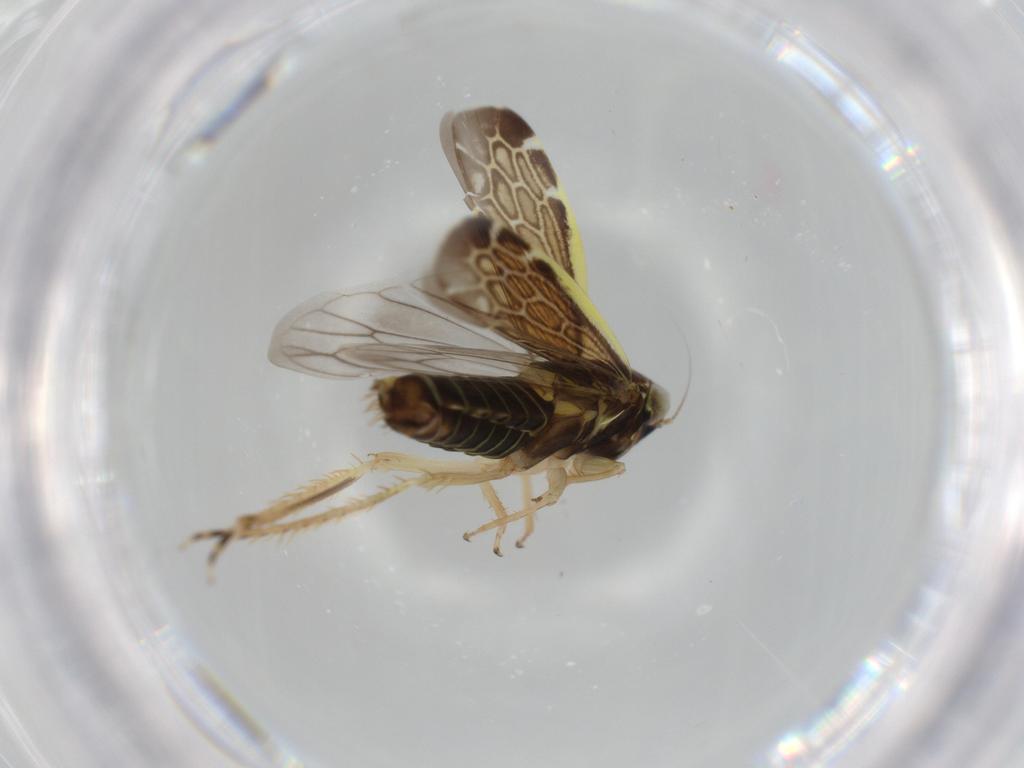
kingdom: Animalia
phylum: Arthropoda
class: Insecta
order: Hemiptera
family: Cicadellidae
